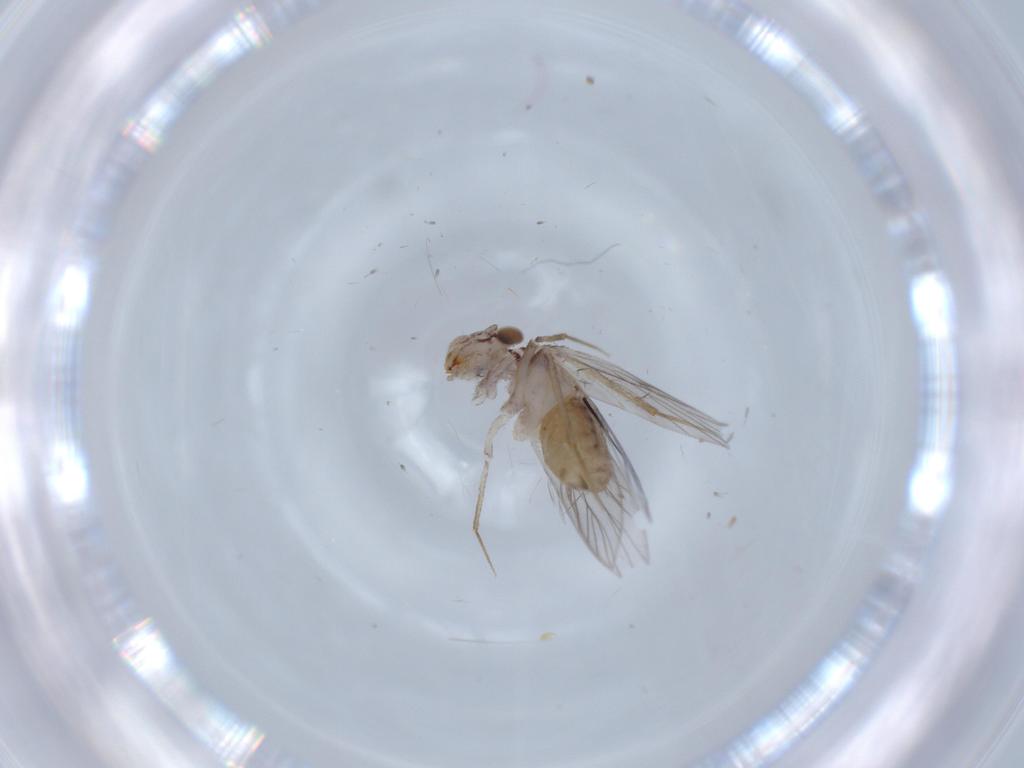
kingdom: Animalia
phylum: Arthropoda
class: Insecta
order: Psocodea
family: Lepidopsocidae
